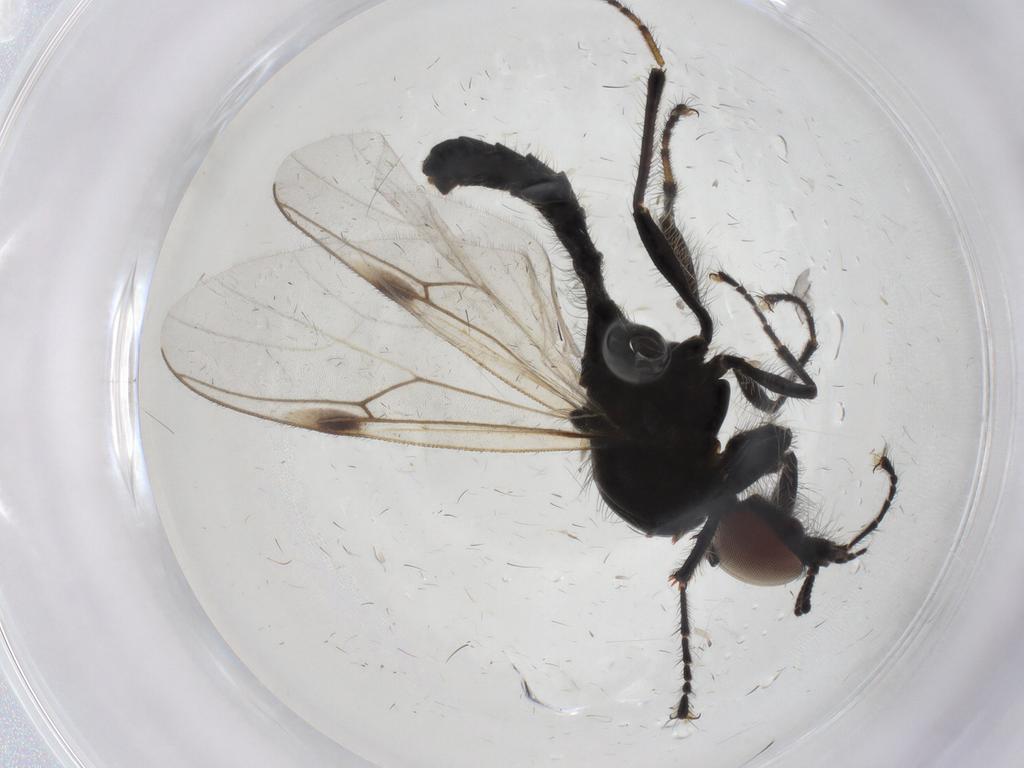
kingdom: Animalia
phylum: Arthropoda
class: Insecta
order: Diptera
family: Bibionidae
